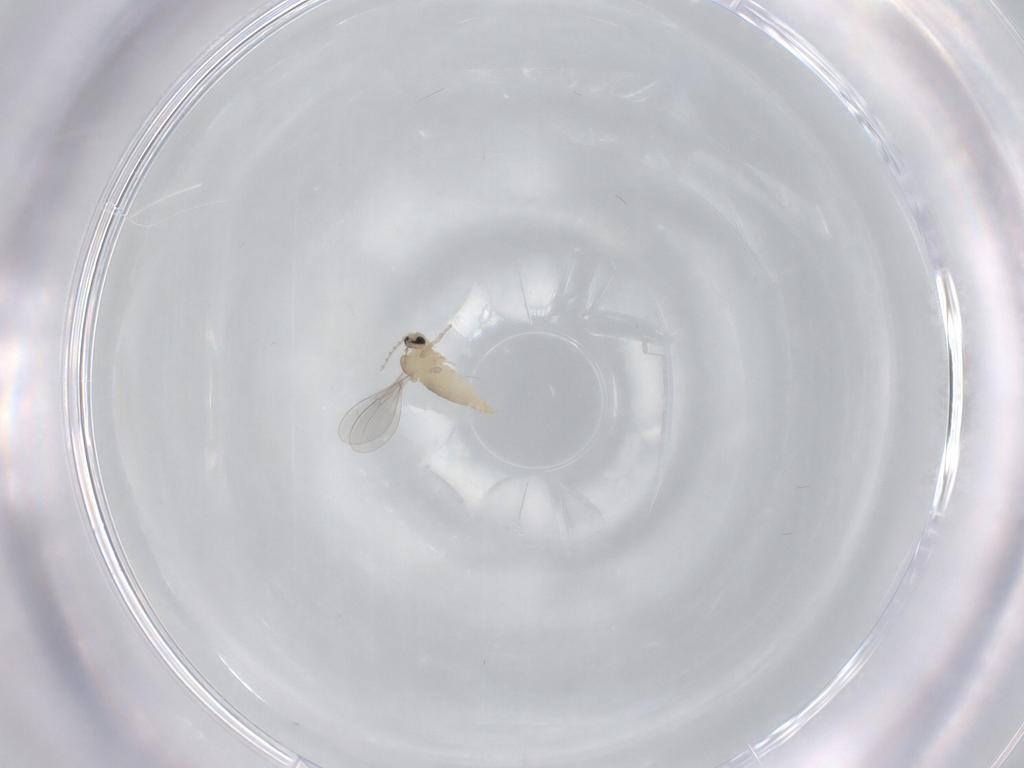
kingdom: Animalia
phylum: Arthropoda
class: Insecta
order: Diptera
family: Cecidomyiidae
